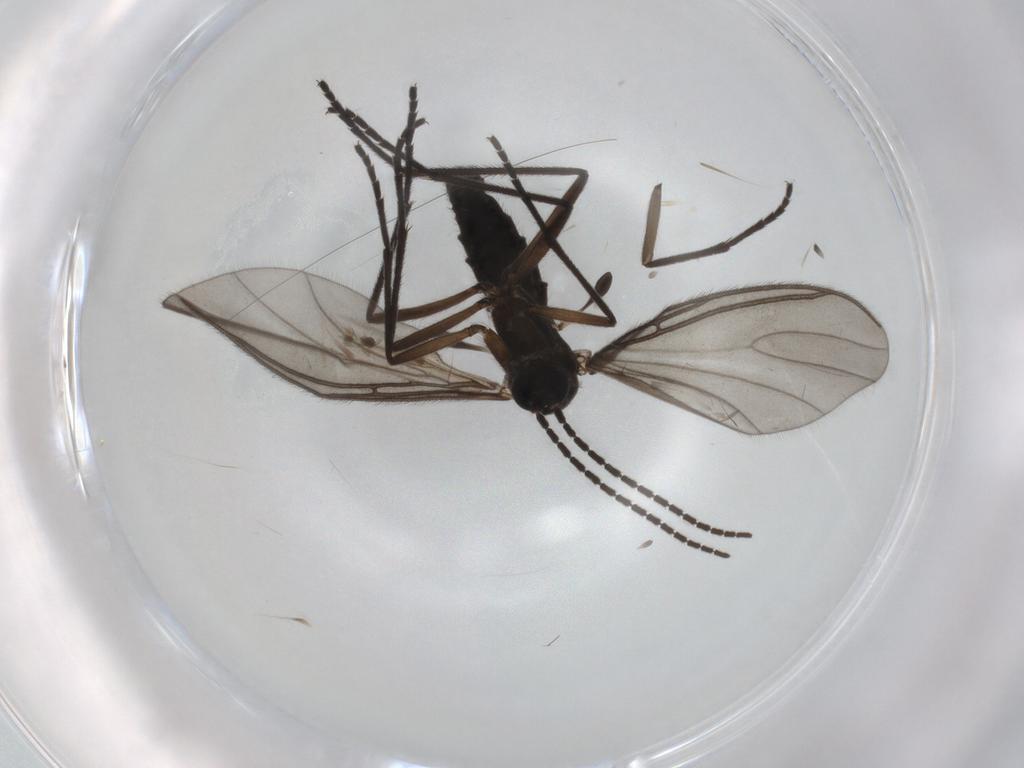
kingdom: Animalia
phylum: Arthropoda
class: Insecta
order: Diptera
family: Sciaridae
